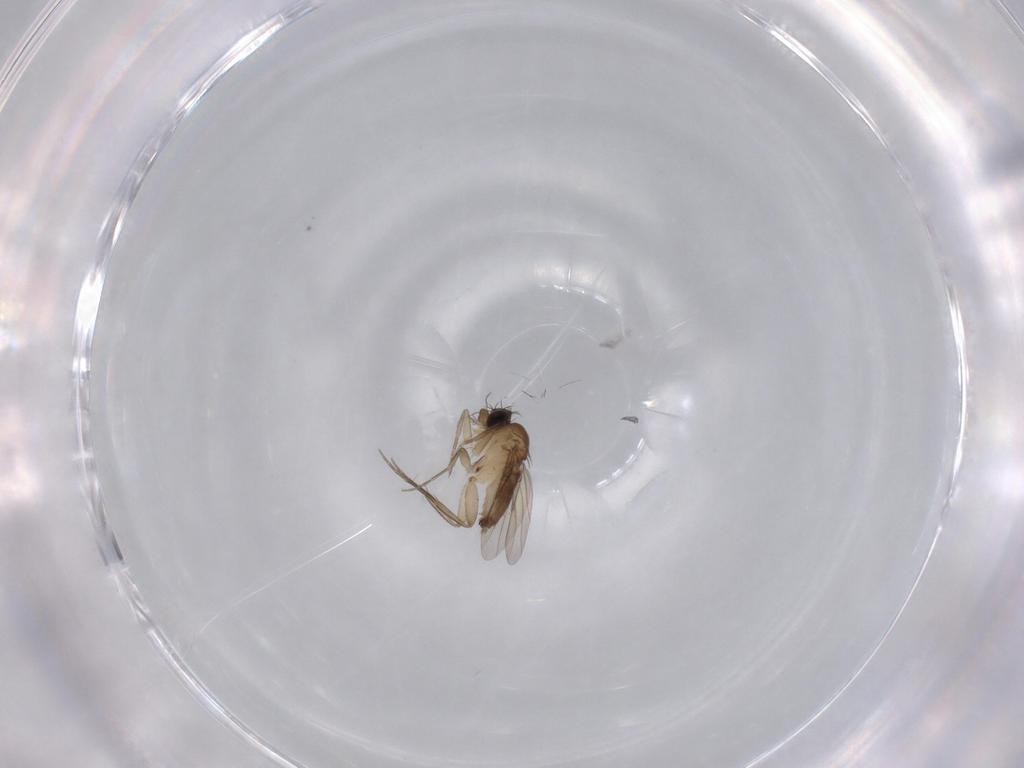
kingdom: Animalia
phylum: Arthropoda
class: Insecta
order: Diptera
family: Phoridae
